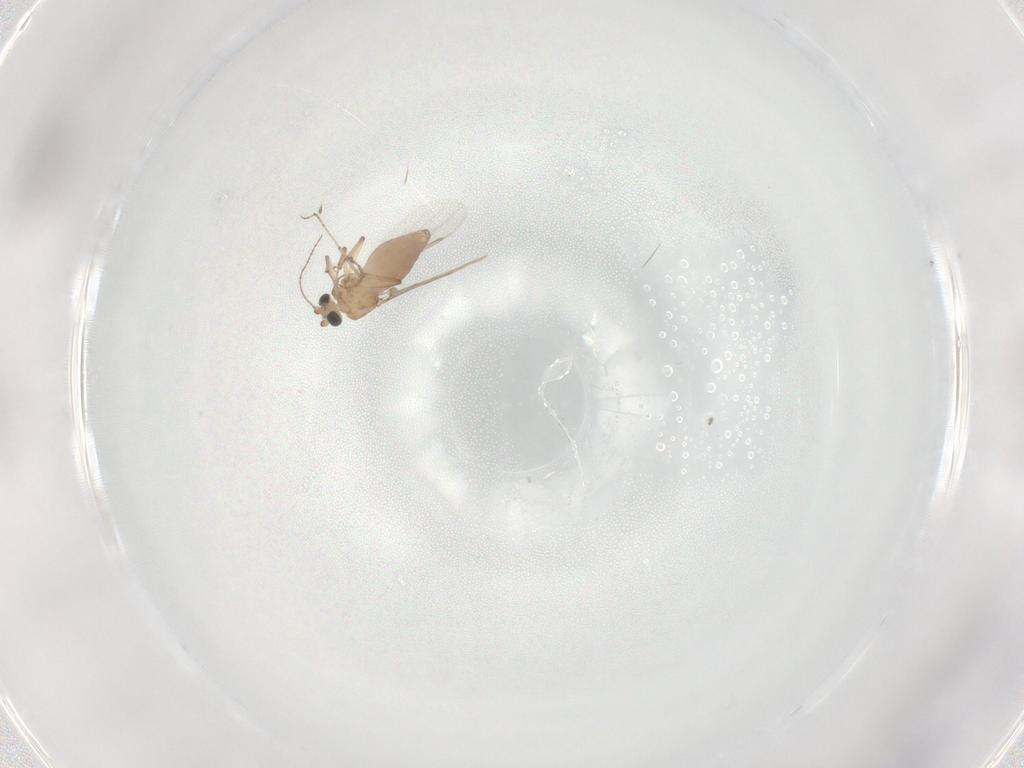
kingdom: Animalia
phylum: Arthropoda
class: Insecta
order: Diptera
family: Ceratopogonidae
